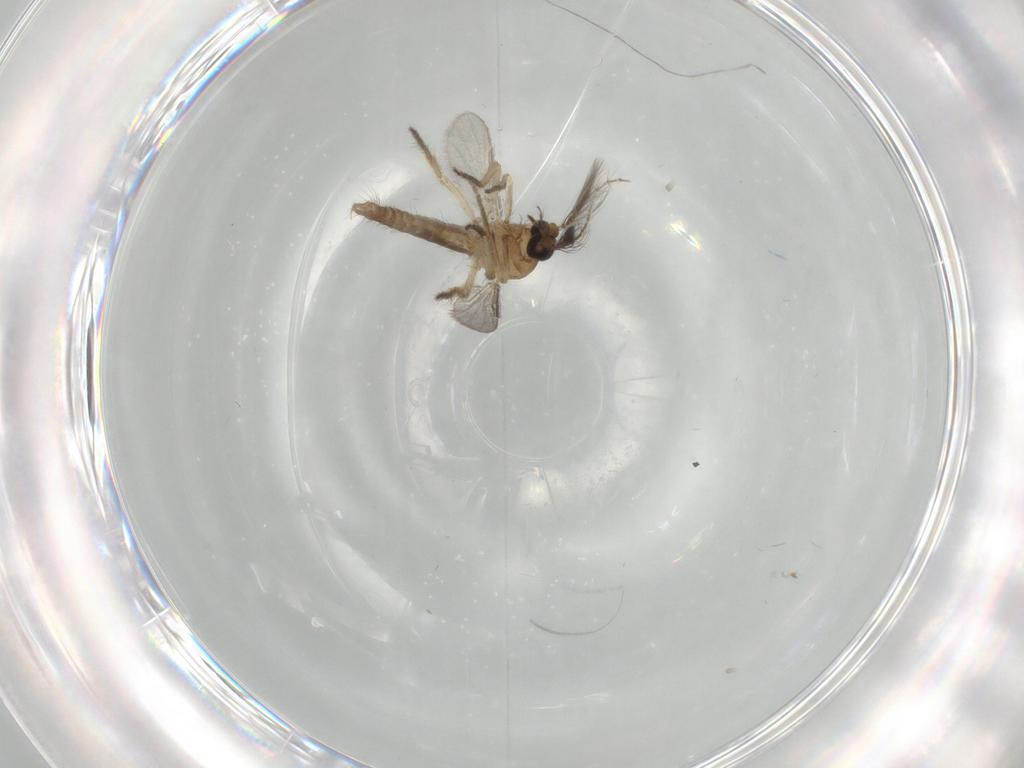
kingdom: Animalia
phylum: Arthropoda
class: Insecta
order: Diptera
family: Ceratopogonidae
